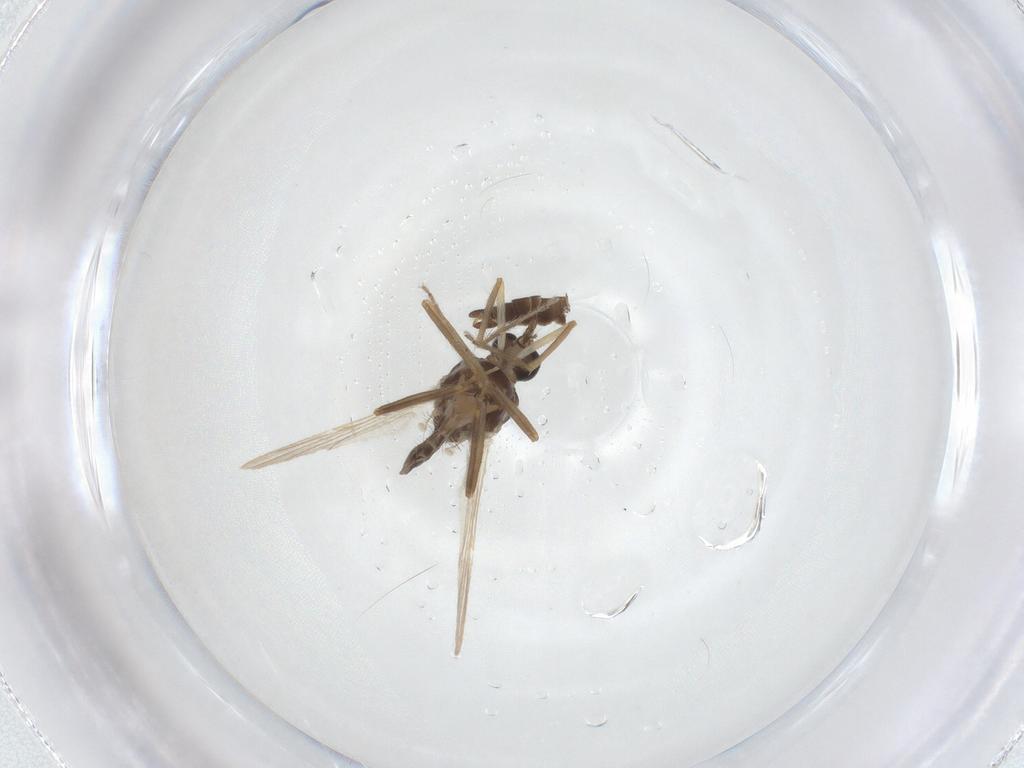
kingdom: Animalia
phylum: Arthropoda
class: Insecta
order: Diptera
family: Ceratopogonidae
